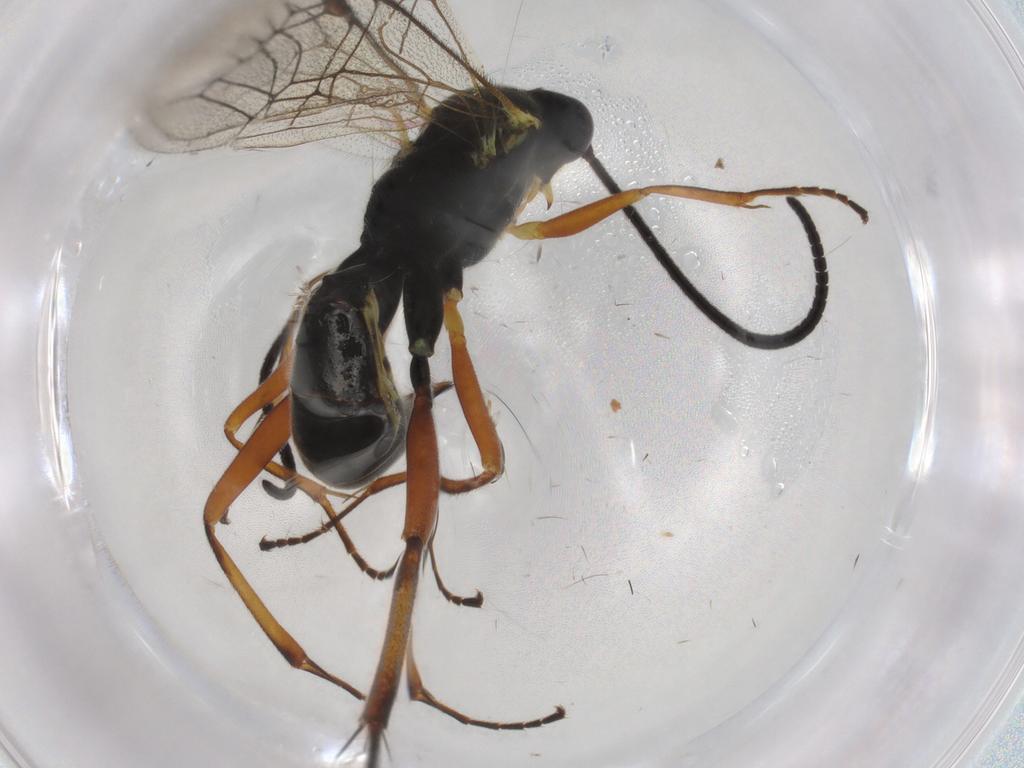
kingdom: Animalia
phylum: Arthropoda
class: Insecta
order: Hymenoptera
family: Ichneumonidae
